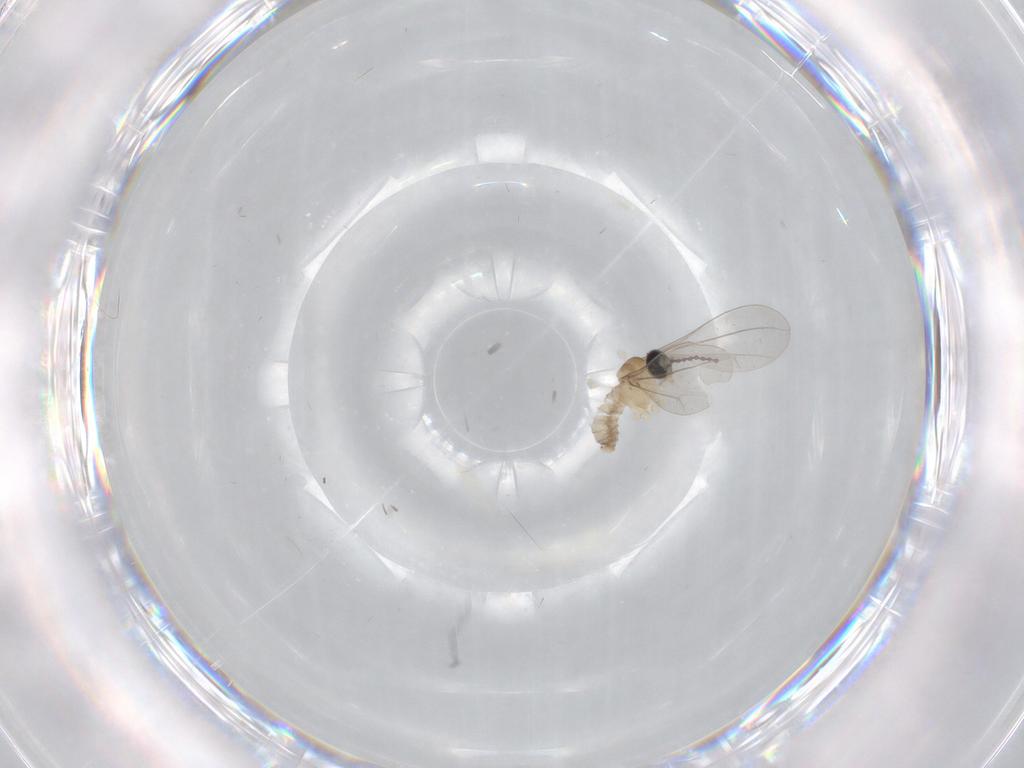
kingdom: Animalia
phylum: Arthropoda
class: Insecta
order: Diptera
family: Cecidomyiidae
